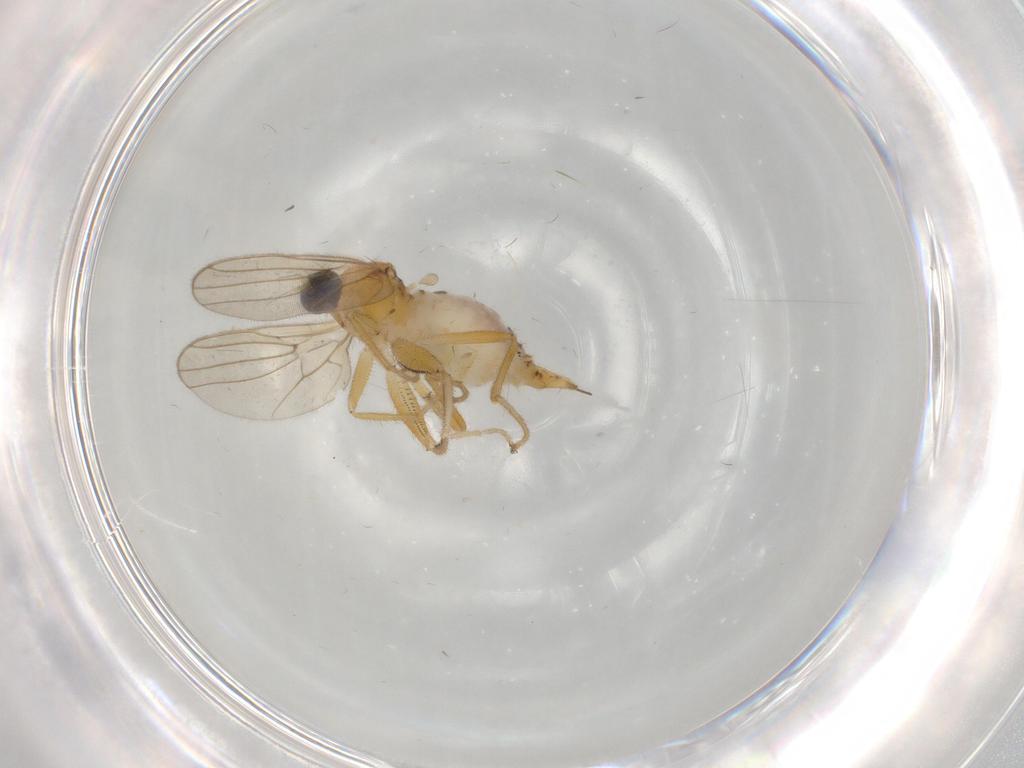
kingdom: Animalia
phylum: Arthropoda
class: Insecta
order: Diptera
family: Hybotidae
